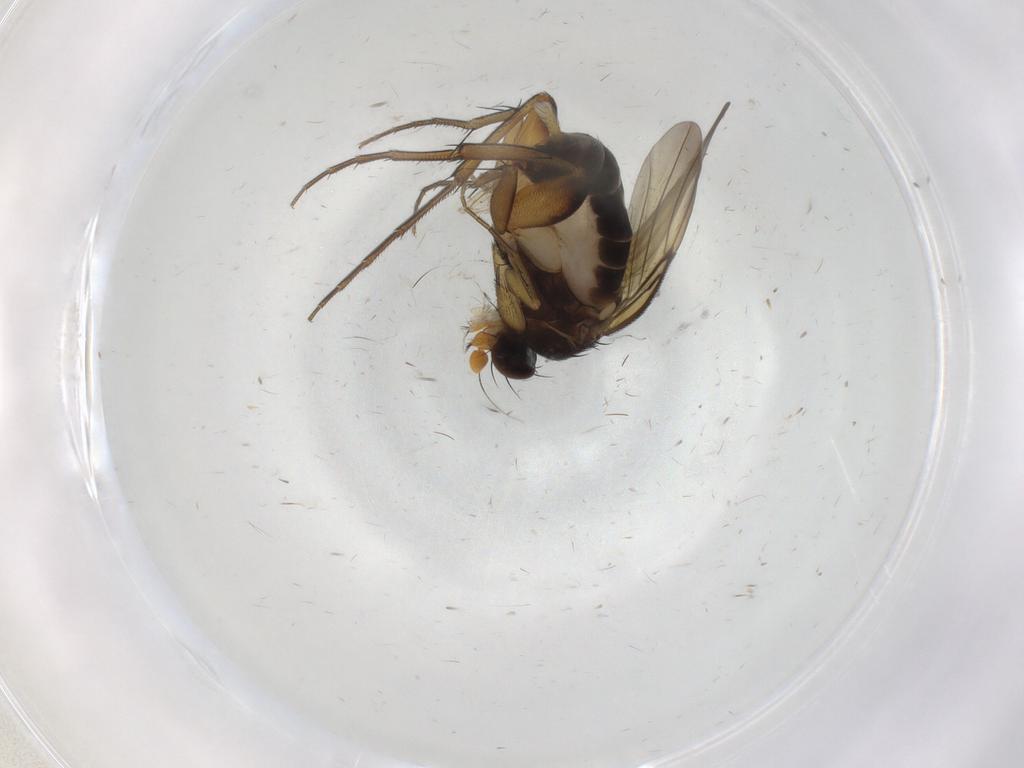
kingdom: Animalia
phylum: Arthropoda
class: Insecta
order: Diptera
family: Phoridae
